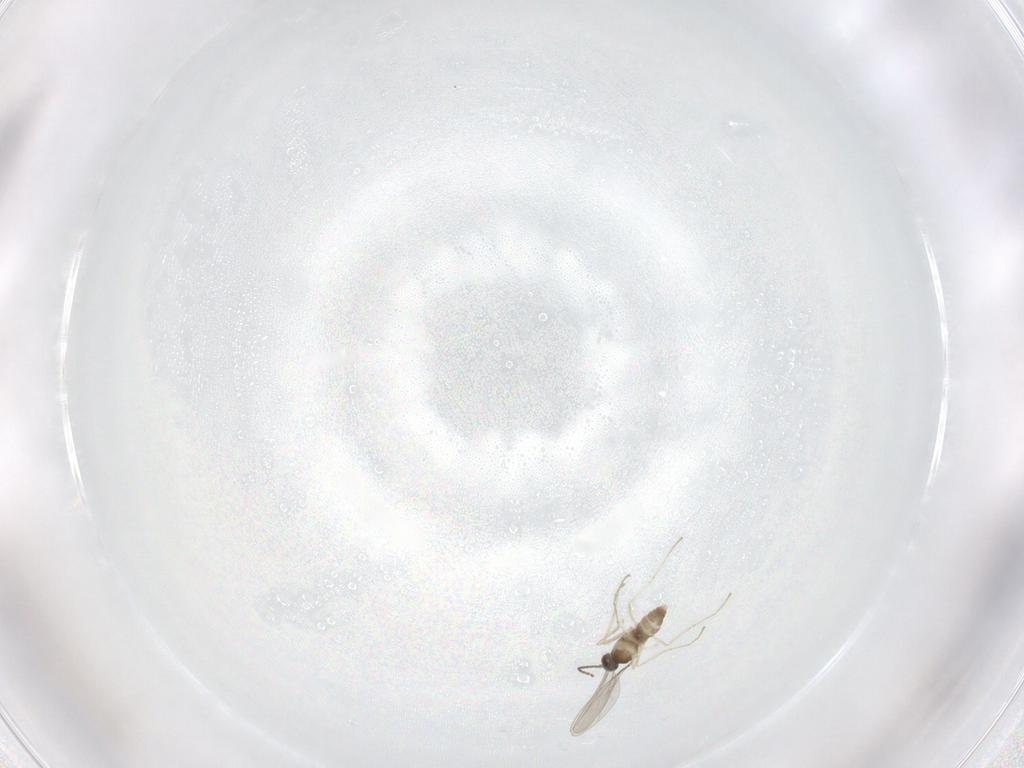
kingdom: Animalia
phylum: Arthropoda
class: Insecta
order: Diptera
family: Cecidomyiidae
